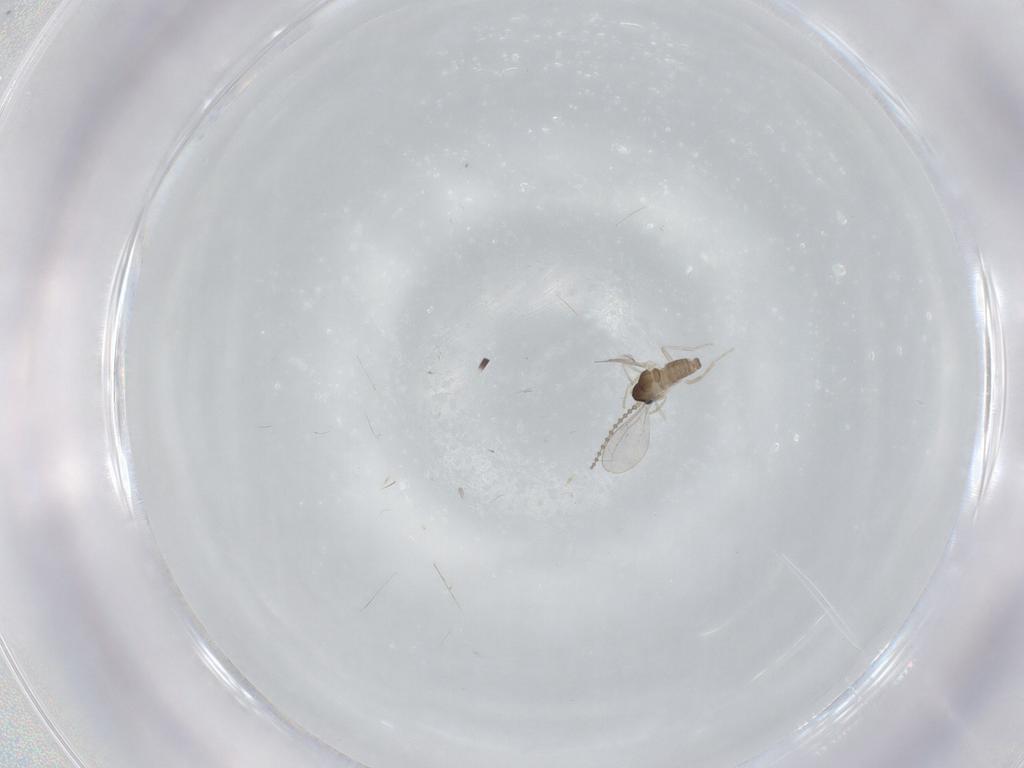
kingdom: Animalia
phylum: Arthropoda
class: Insecta
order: Diptera
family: Cecidomyiidae
